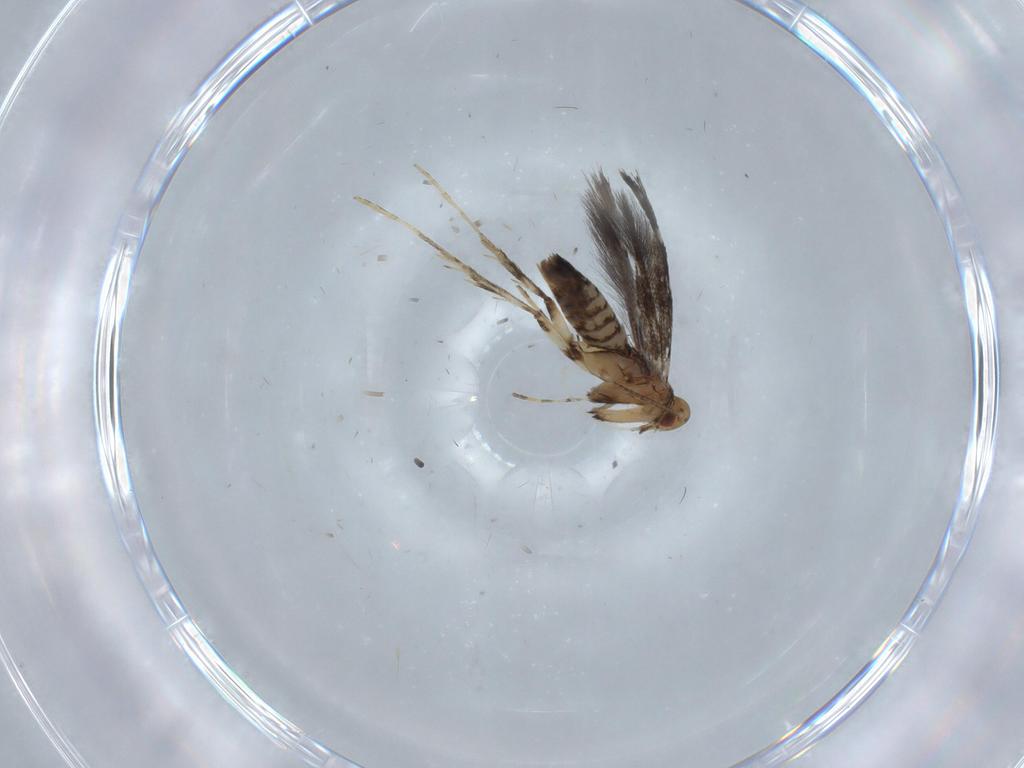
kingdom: Animalia
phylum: Arthropoda
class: Insecta
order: Lepidoptera
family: Gracillariidae
